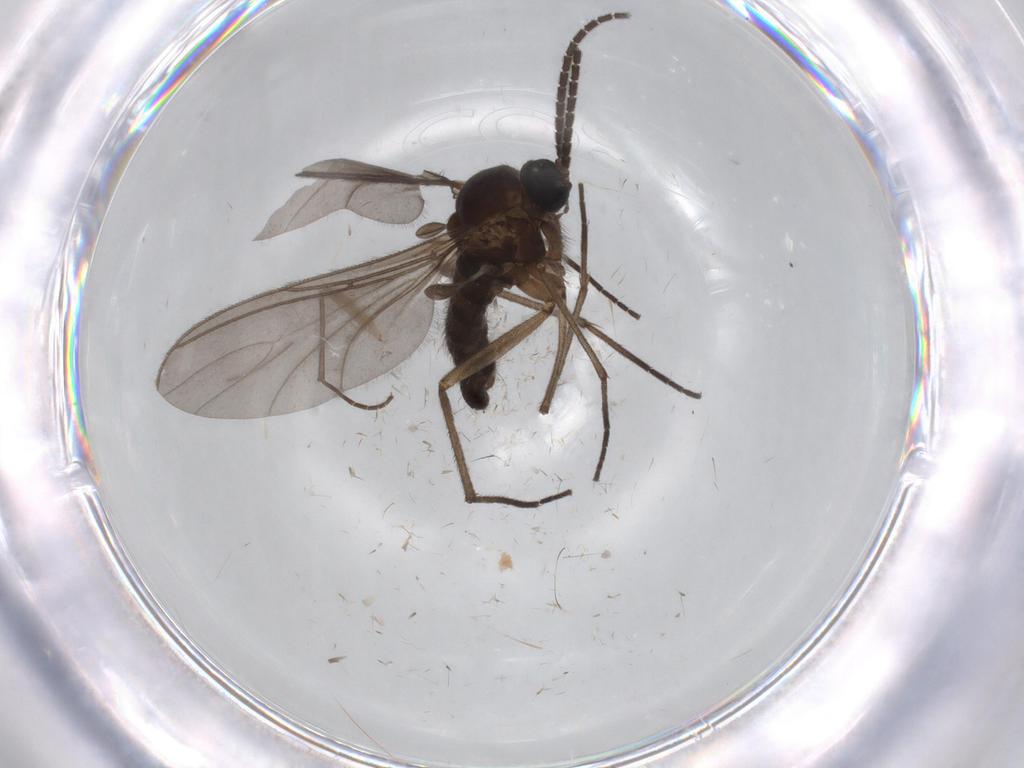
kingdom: Animalia
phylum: Arthropoda
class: Insecta
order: Diptera
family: Sciaridae
